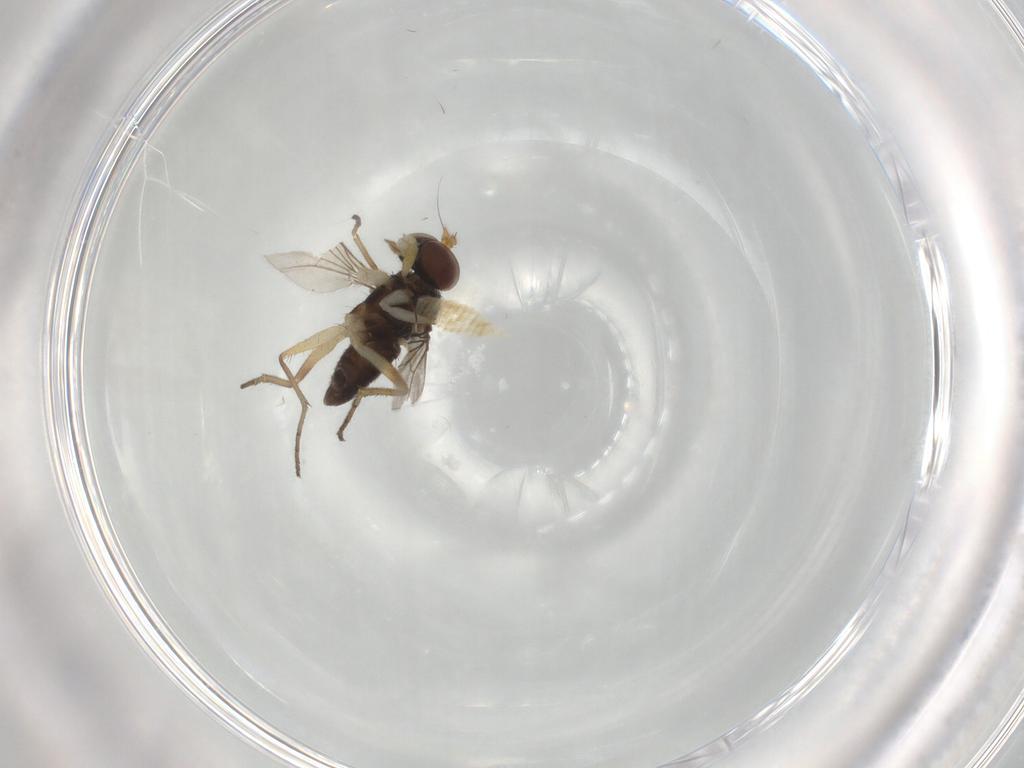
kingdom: Animalia
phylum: Arthropoda
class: Insecta
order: Diptera
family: Dolichopodidae
